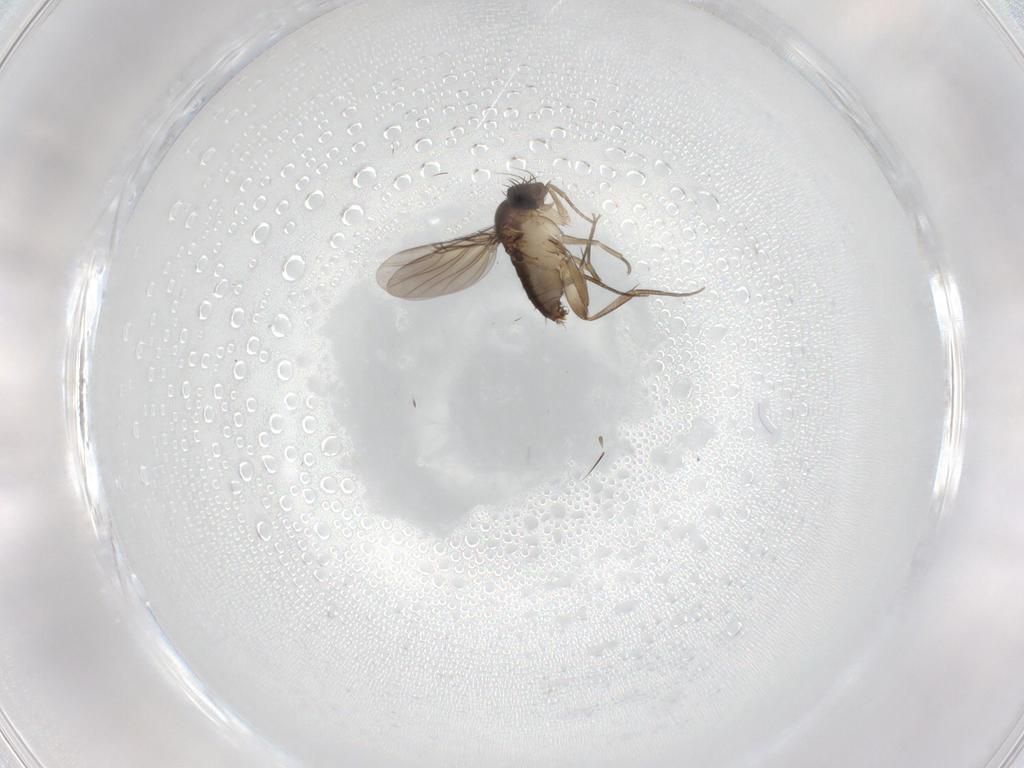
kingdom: Animalia
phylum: Arthropoda
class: Insecta
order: Diptera
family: Phoridae
